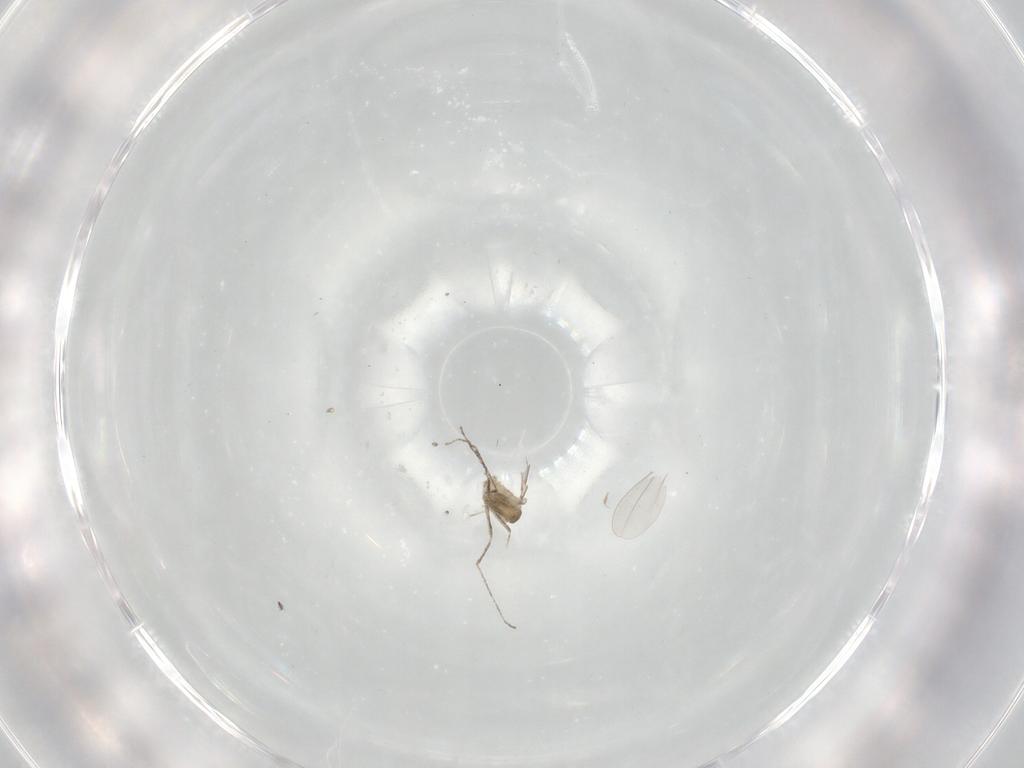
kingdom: Animalia
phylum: Arthropoda
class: Insecta
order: Diptera
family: Cecidomyiidae
